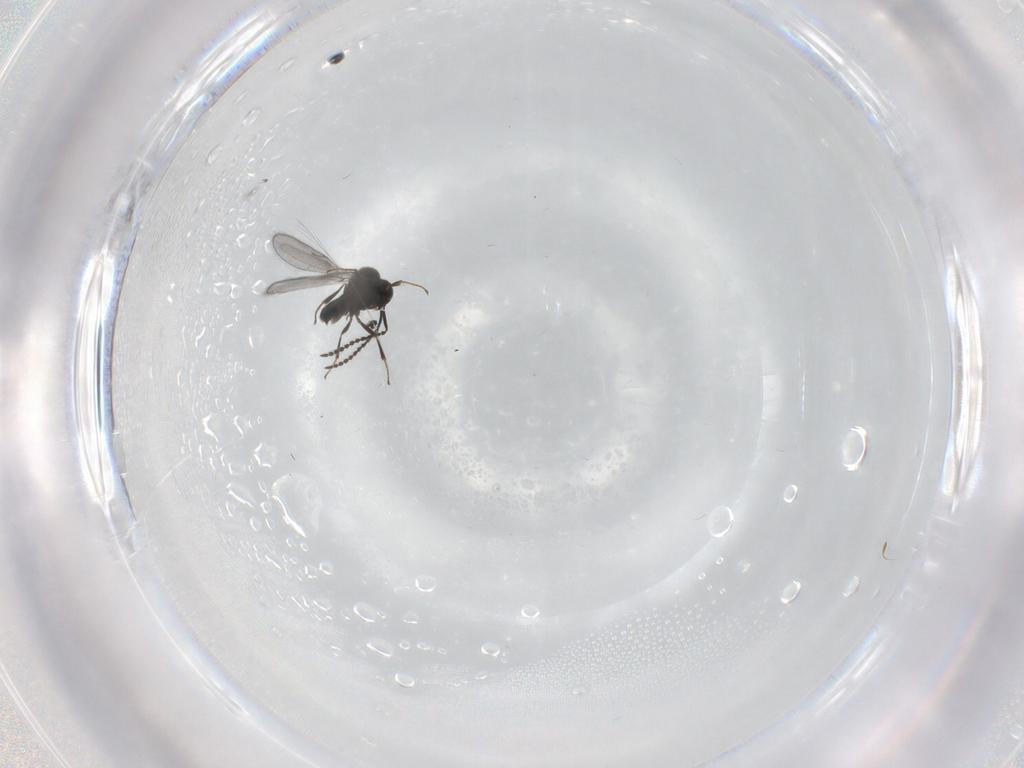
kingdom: Animalia
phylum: Arthropoda
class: Insecta
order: Hymenoptera
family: Scelionidae
